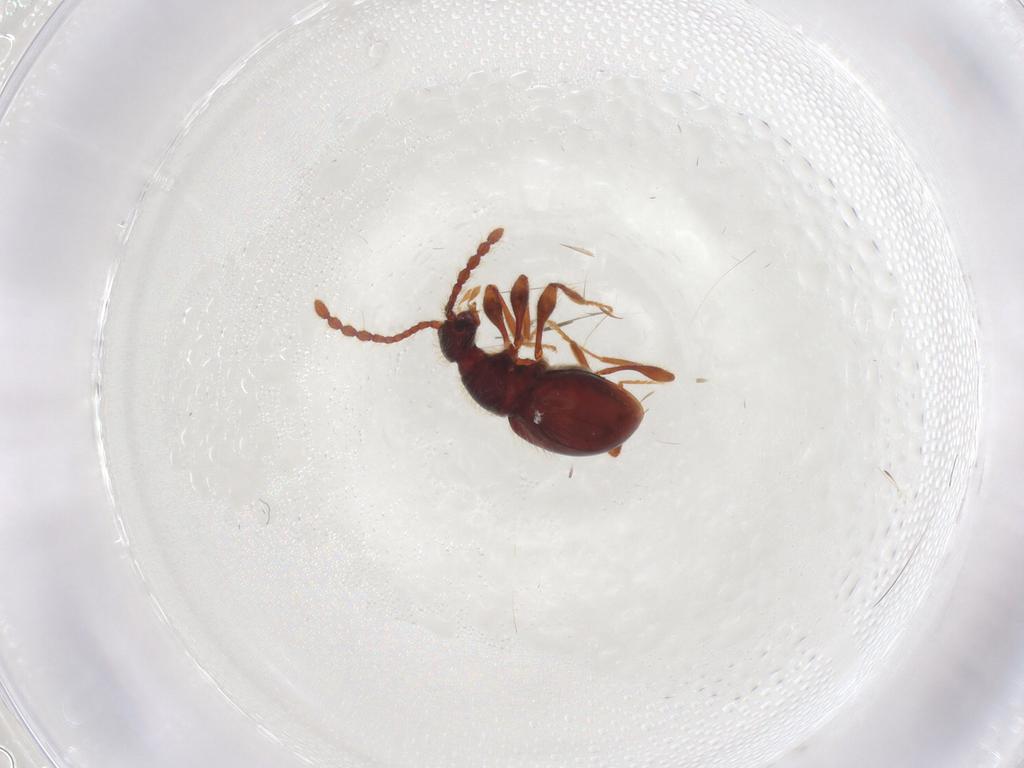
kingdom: Animalia
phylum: Arthropoda
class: Insecta
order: Coleoptera
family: Staphylinidae
